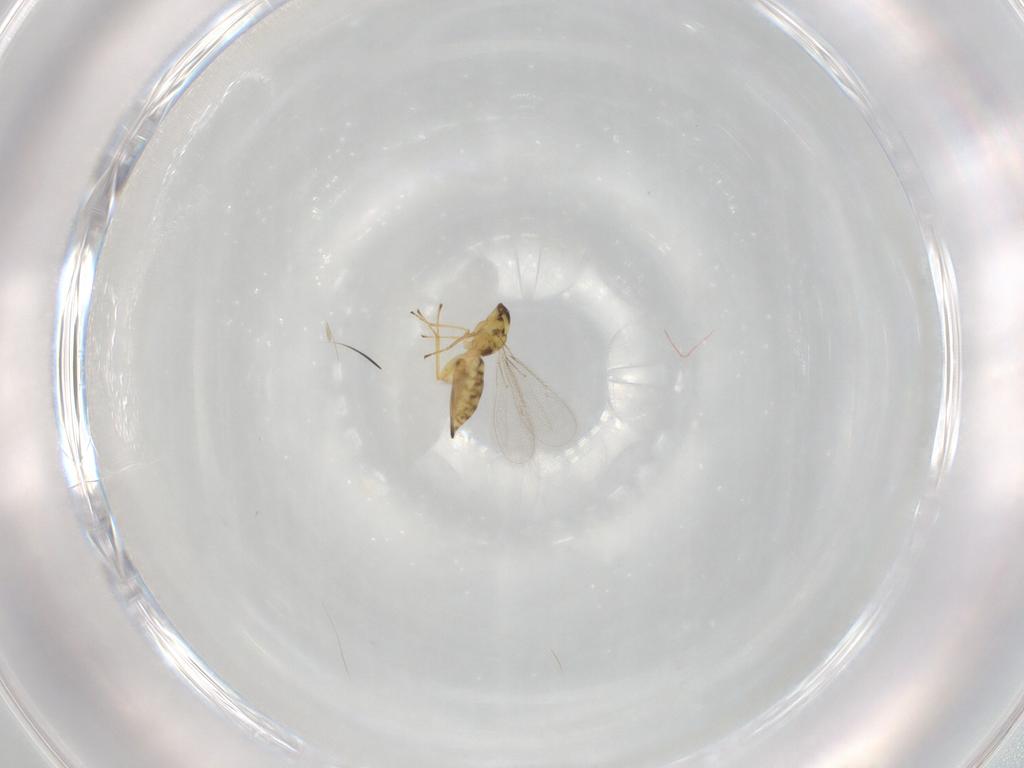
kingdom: Animalia
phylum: Arthropoda
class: Insecta
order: Hymenoptera
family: Eulophidae
